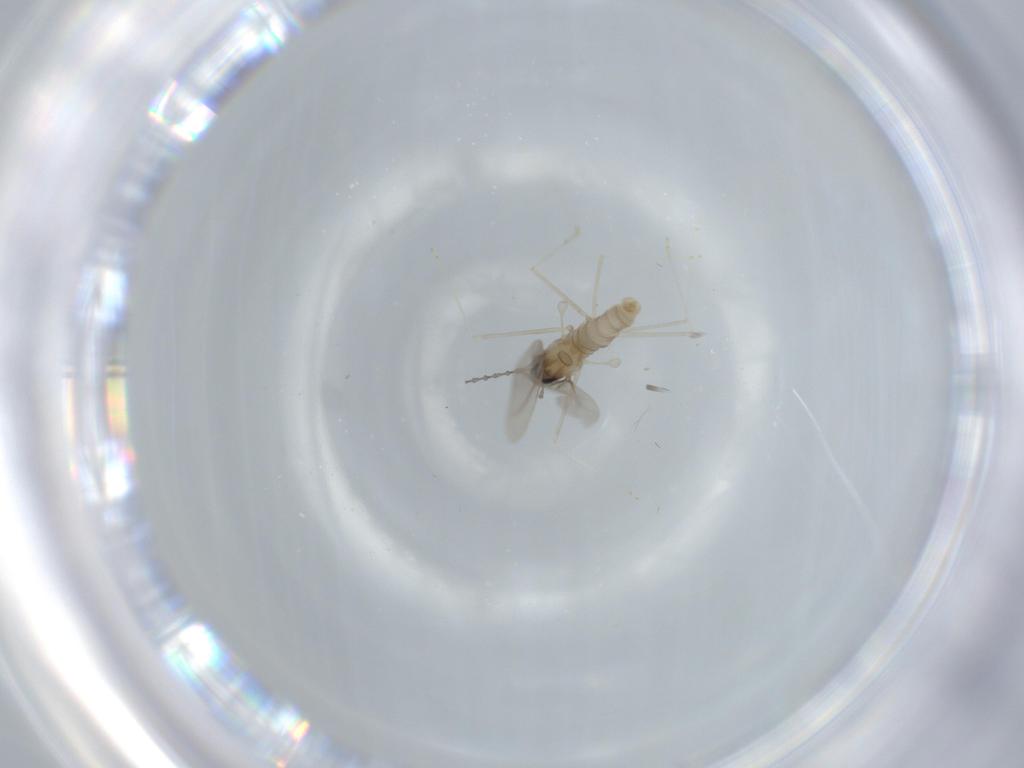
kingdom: Animalia
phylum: Arthropoda
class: Insecta
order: Diptera
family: Cecidomyiidae
